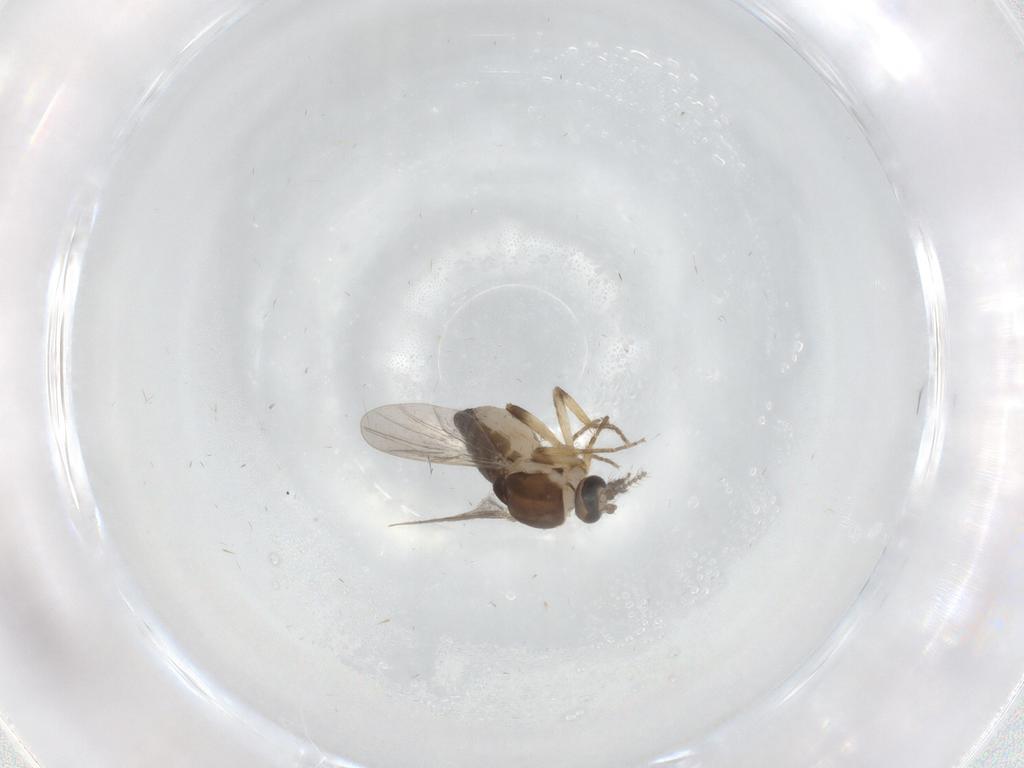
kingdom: Animalia
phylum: Arthropoda
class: Insecta
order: Diptera
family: Ceratopogonidae
